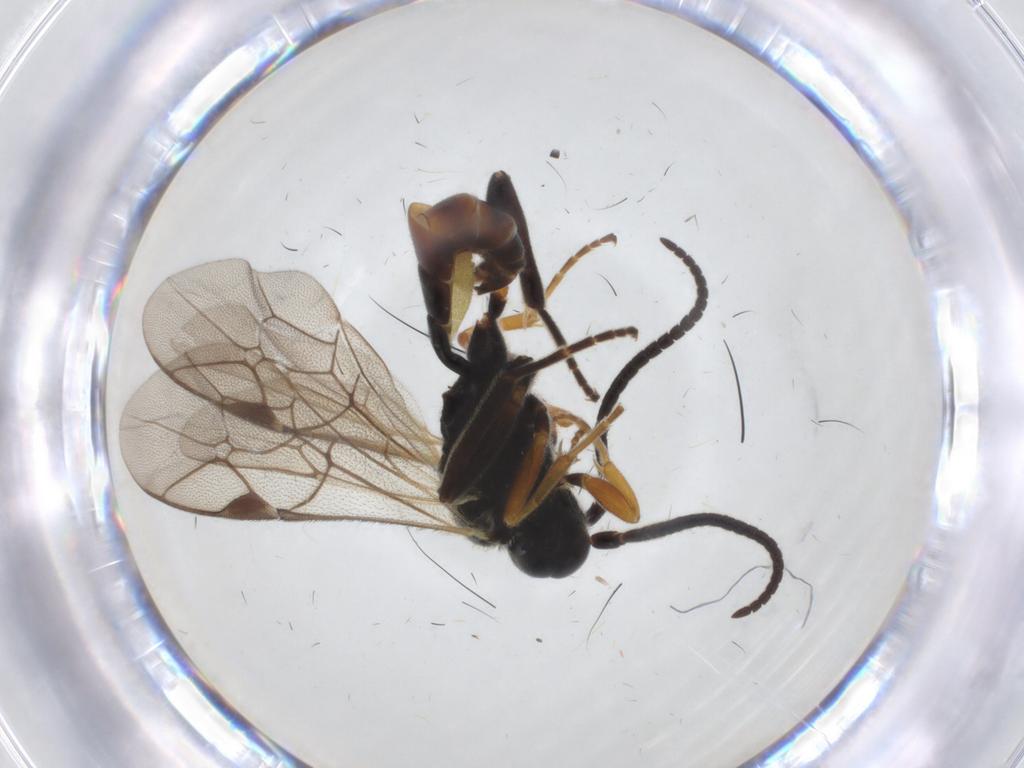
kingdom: Animalia
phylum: Arthropoda
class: Insecta
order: Hymenoptera
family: Ichneumonidae
